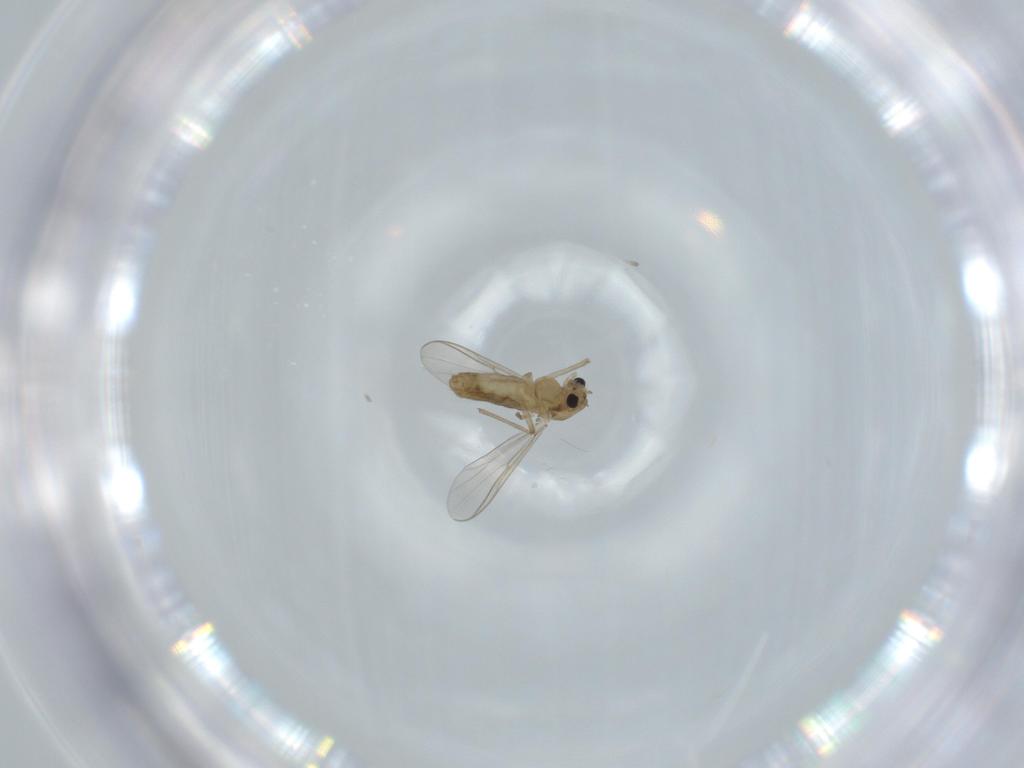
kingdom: Animalia
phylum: Arthropoda
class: Insecta
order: Diptera
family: Chironomidae
